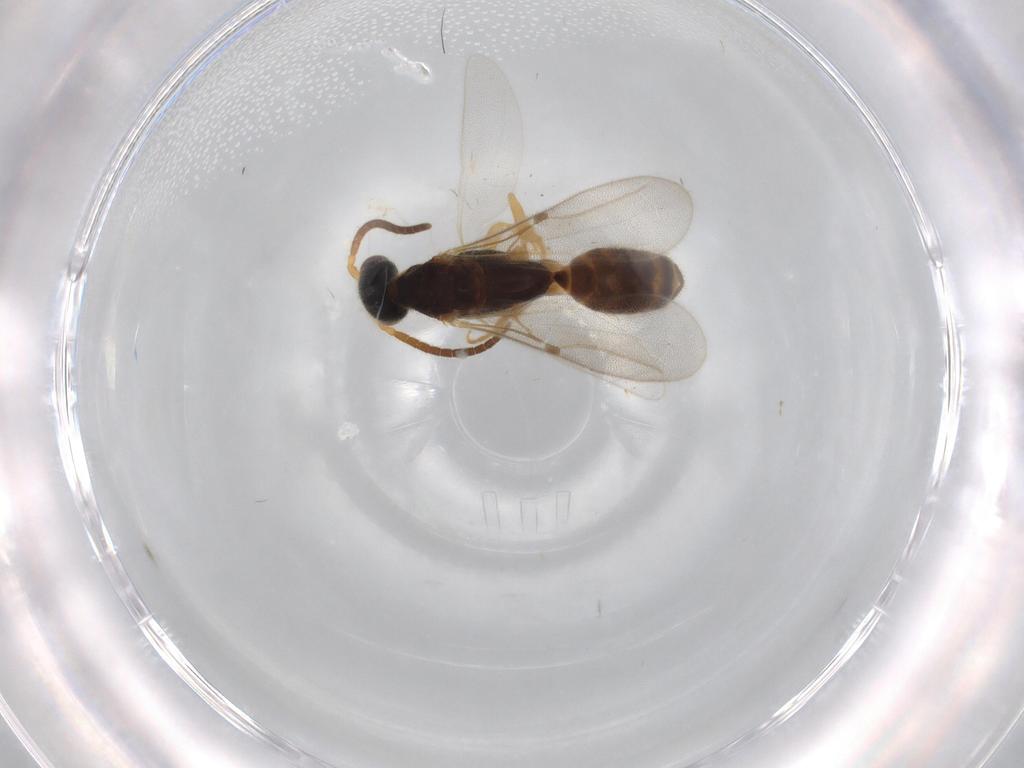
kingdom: Animalia
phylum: Arthropoda
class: Insecta
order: Hymenoptera
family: Bethylidae
